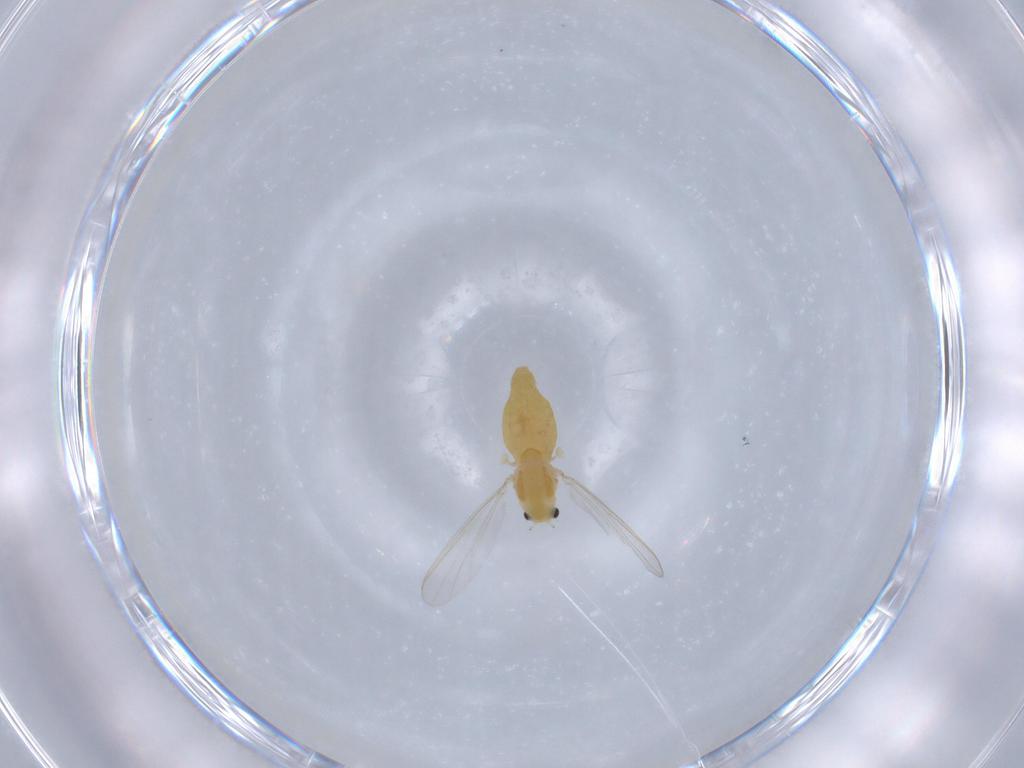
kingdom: Animalia
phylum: Arthropoda
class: Insecta
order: Diptera
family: Chironomidae
